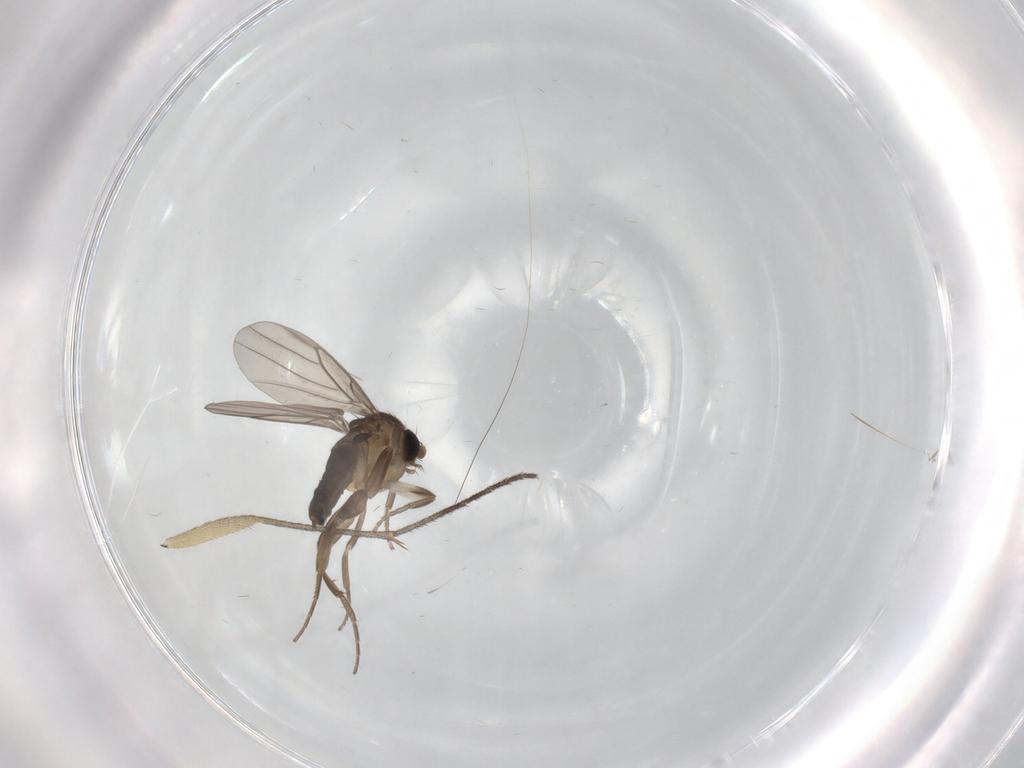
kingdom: Animalia
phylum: Arthropoda
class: Insecta
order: Diptera
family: Sciaridae
